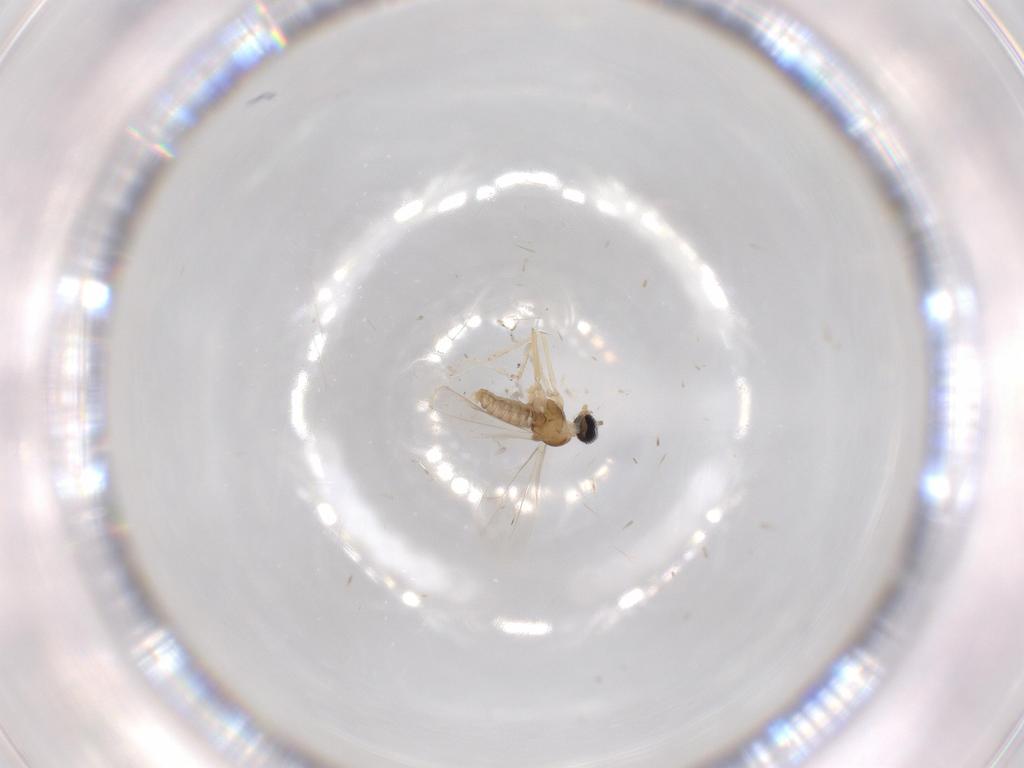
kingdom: Animalia
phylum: Arthropoda
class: Insecta
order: Diptera
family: Cecidomyiidae
